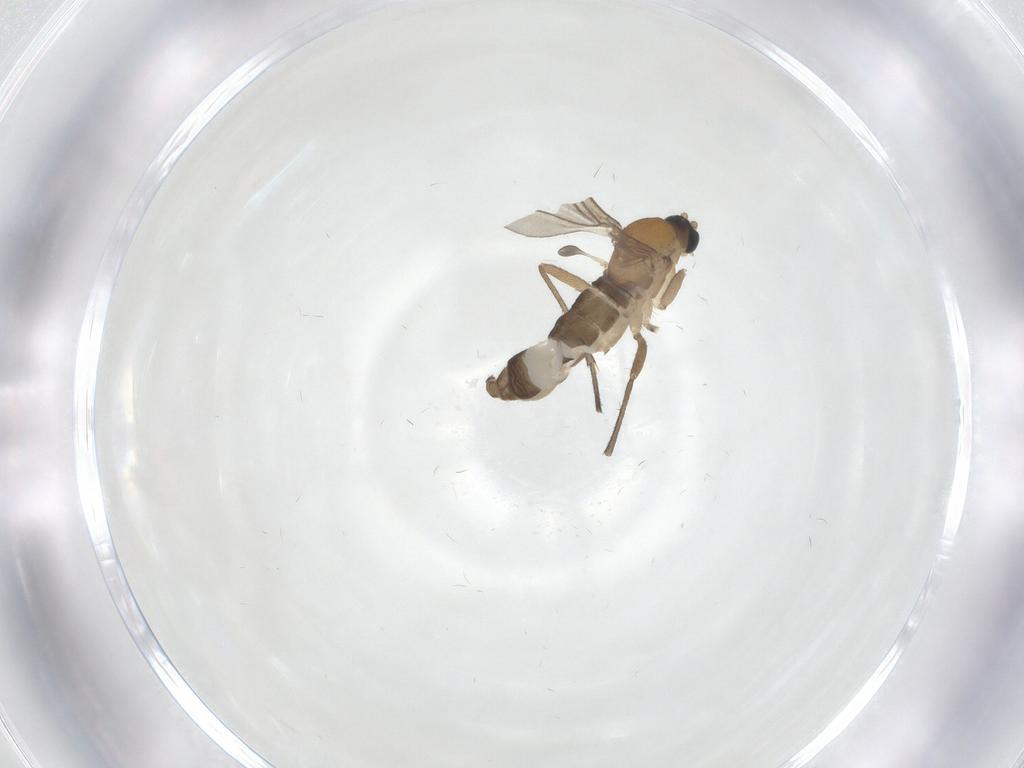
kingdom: Animalia
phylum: Arthropoda
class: Insecta
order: Diptera
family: Sciaridae
